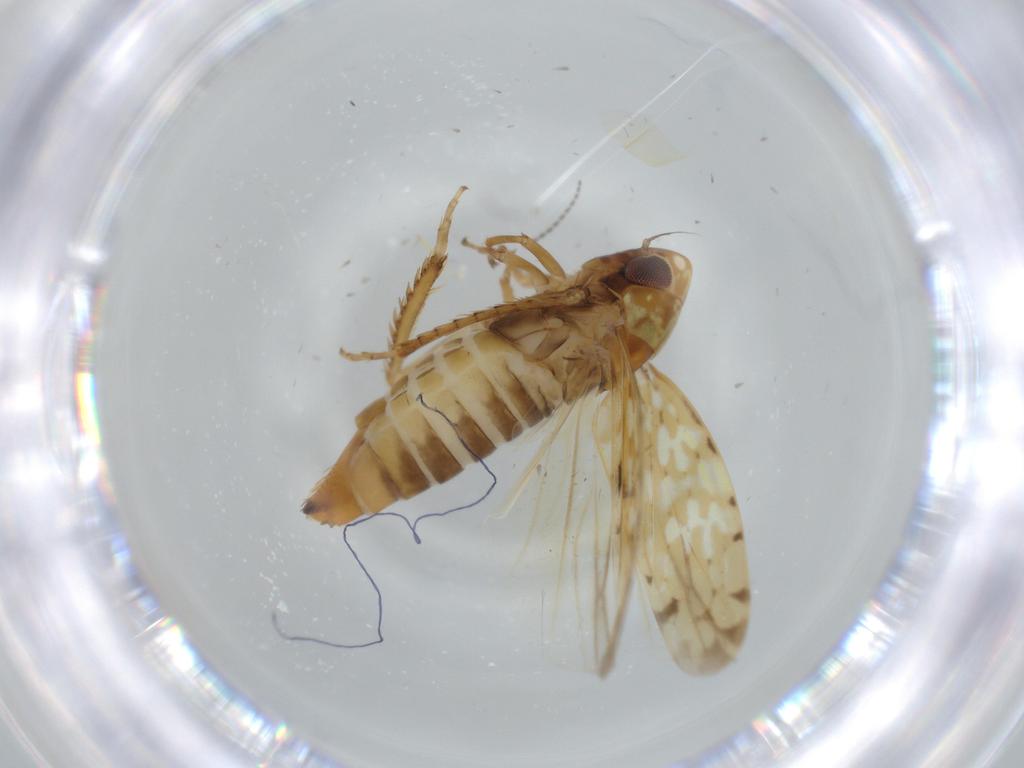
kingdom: Animalia
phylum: Arthropoda
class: Insecta
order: Hemiptera
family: Cicadellidae
